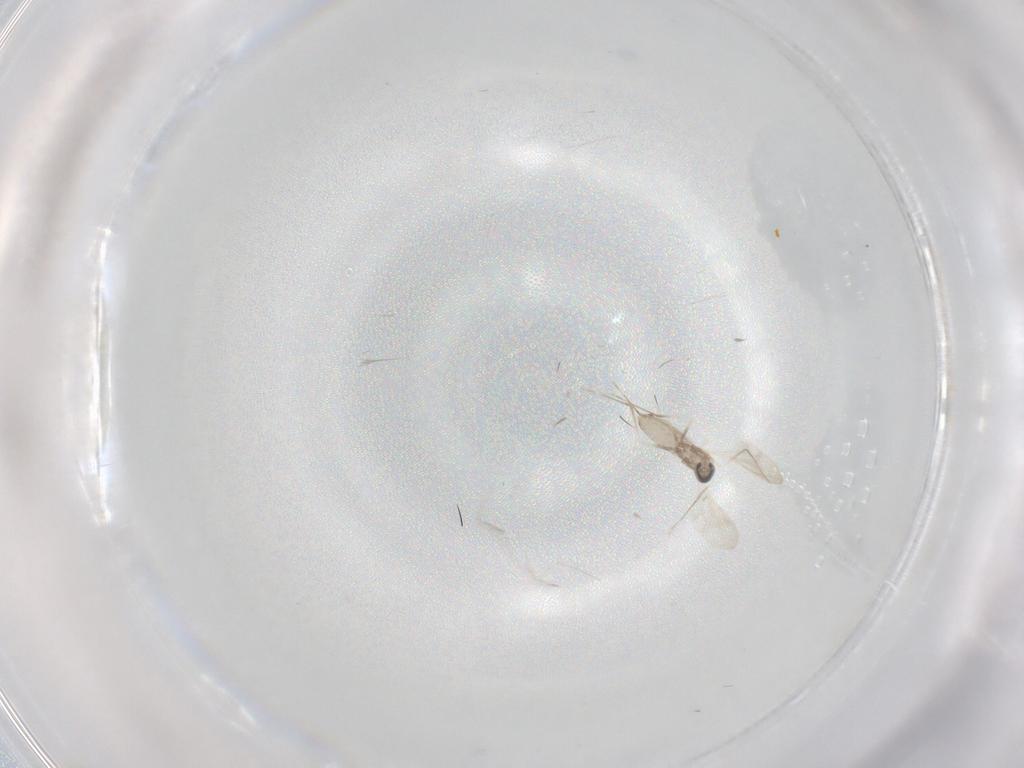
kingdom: Animalia
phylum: Arthropoda
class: Insecta
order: Diptera
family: Cecidomyiidae
